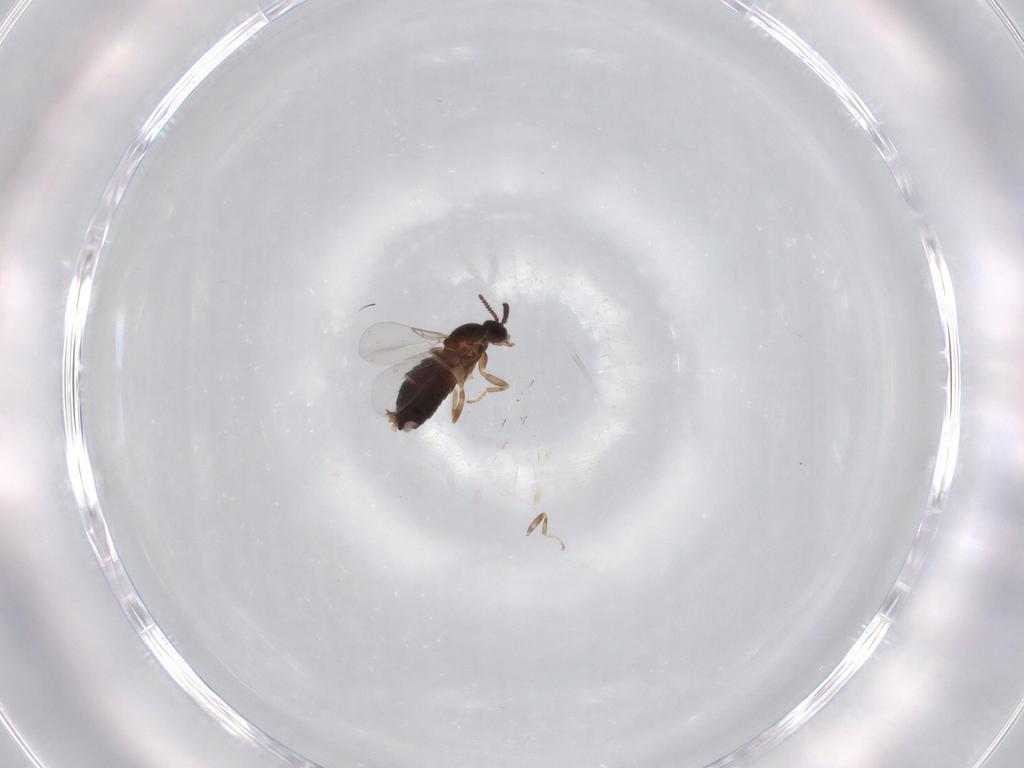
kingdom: Animalia
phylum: Arthropoda
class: Insecta
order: Diptera
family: Scatopsidae
